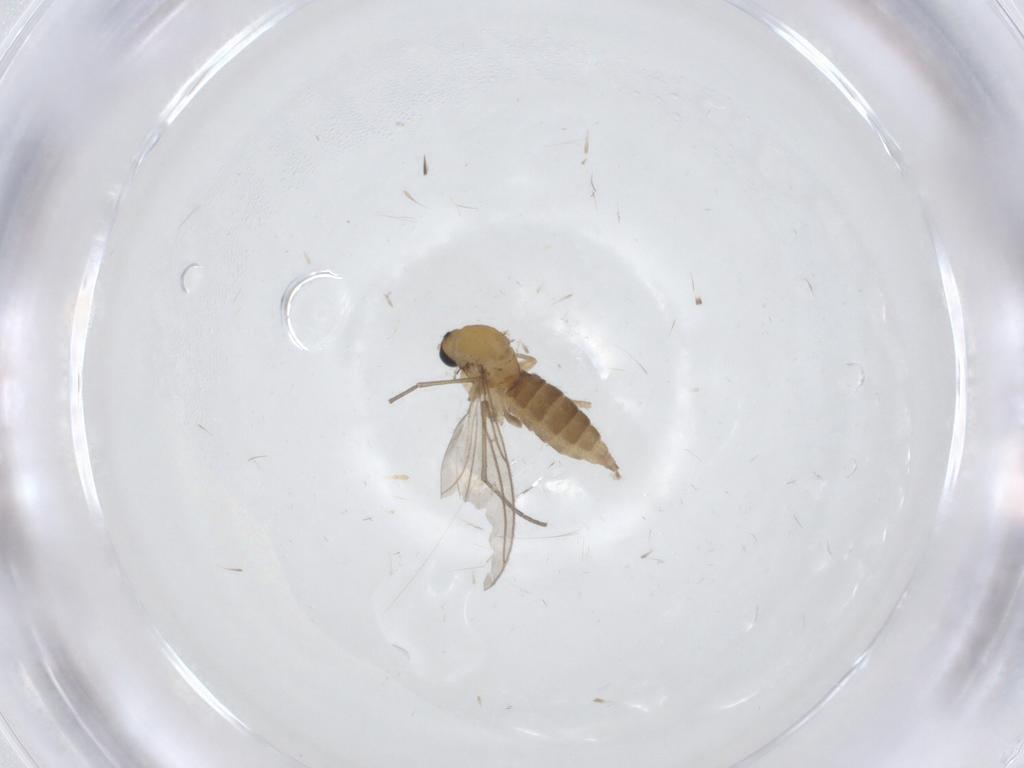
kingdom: Animalia
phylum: Arthropoda
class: Insecta
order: Diptera
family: Sciaridae
